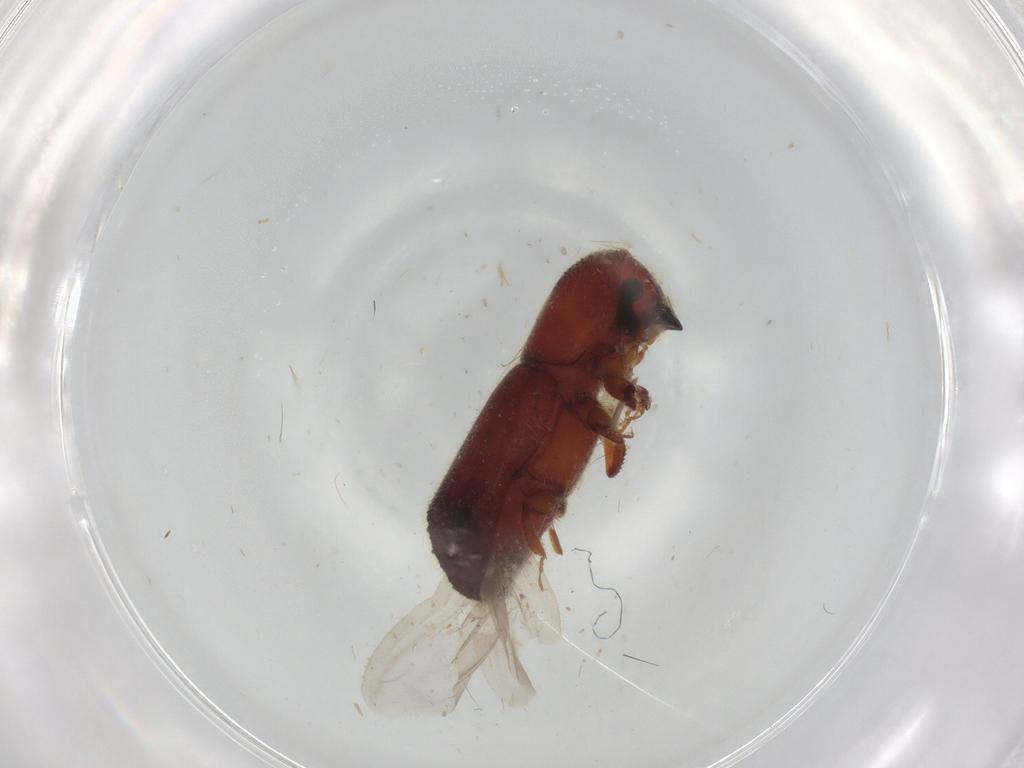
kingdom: Animalia
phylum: Arthropoda
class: Insecta
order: Coleoptera
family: Curculionidae
